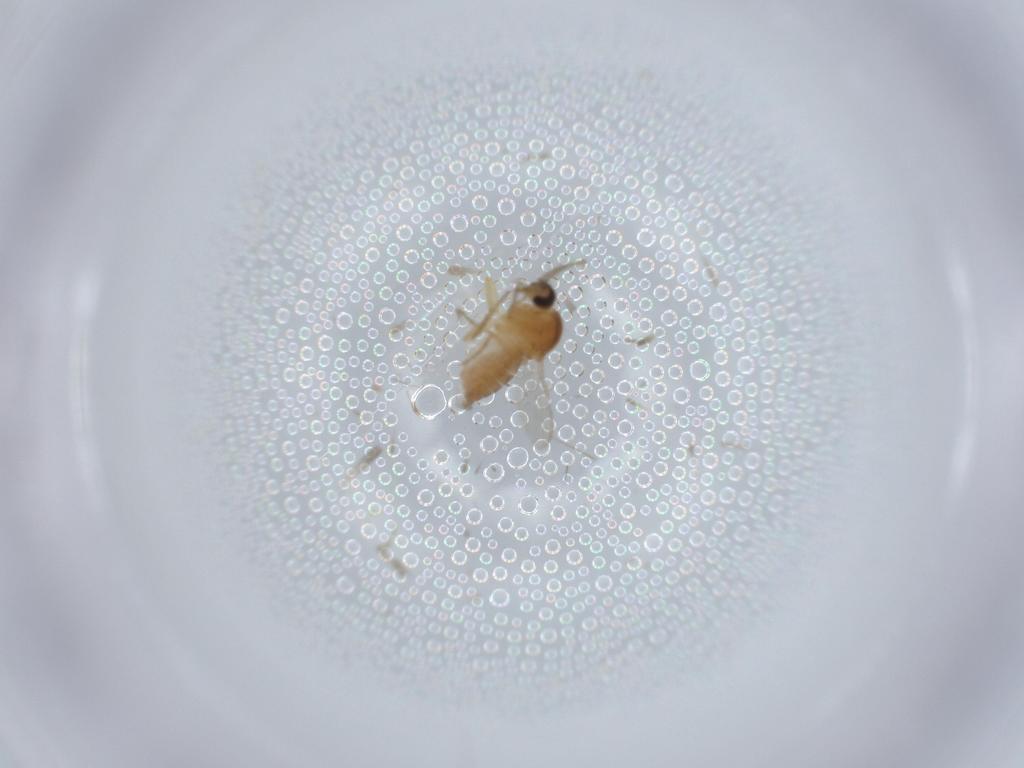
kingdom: Animalia
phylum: Arthropoda
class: Insecta
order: Diptera
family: Ceratopogonidae
